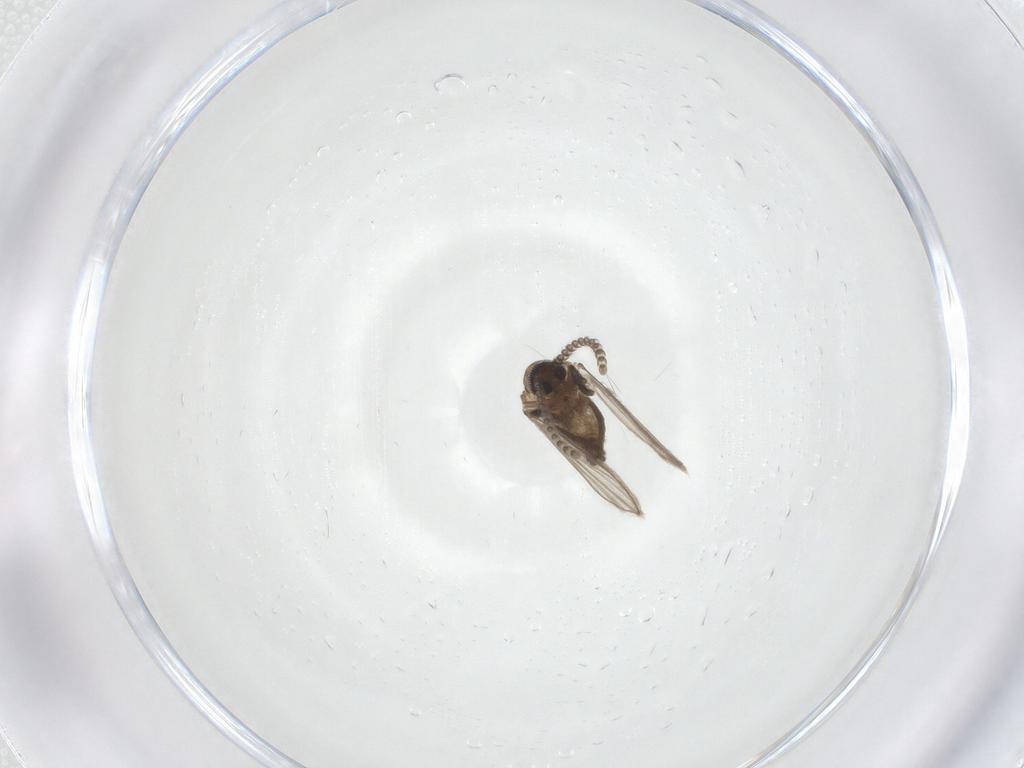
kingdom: Animalia
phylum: Arthropoda
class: Insecta
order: Diptera
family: Psychodidae
